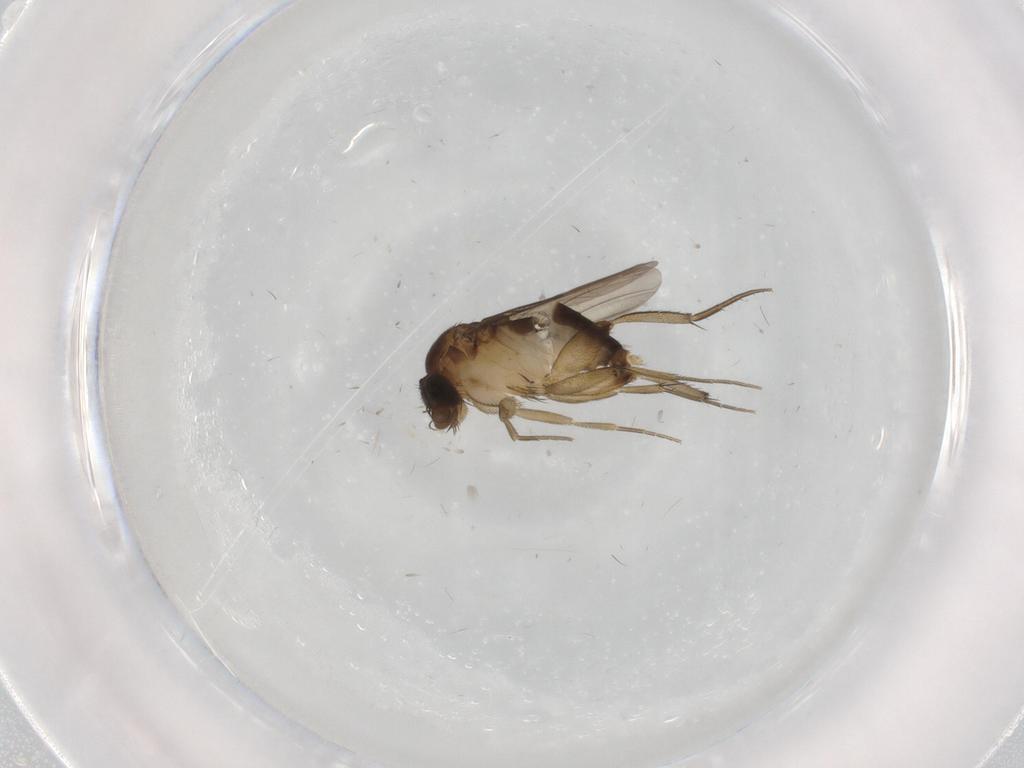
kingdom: Animalia
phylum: Arthropoda
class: Insecta
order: Diptera
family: Phoridae
